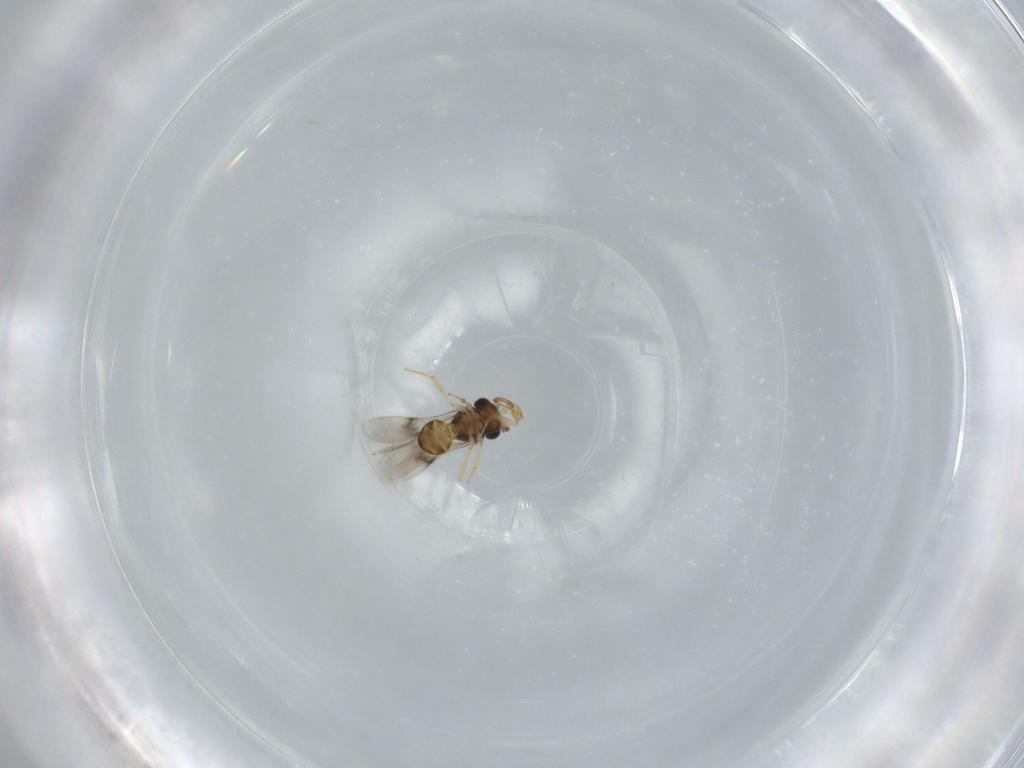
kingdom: Animalia
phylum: Arthropoda
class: Insecta
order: Hymenoptera
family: Scelionidae
